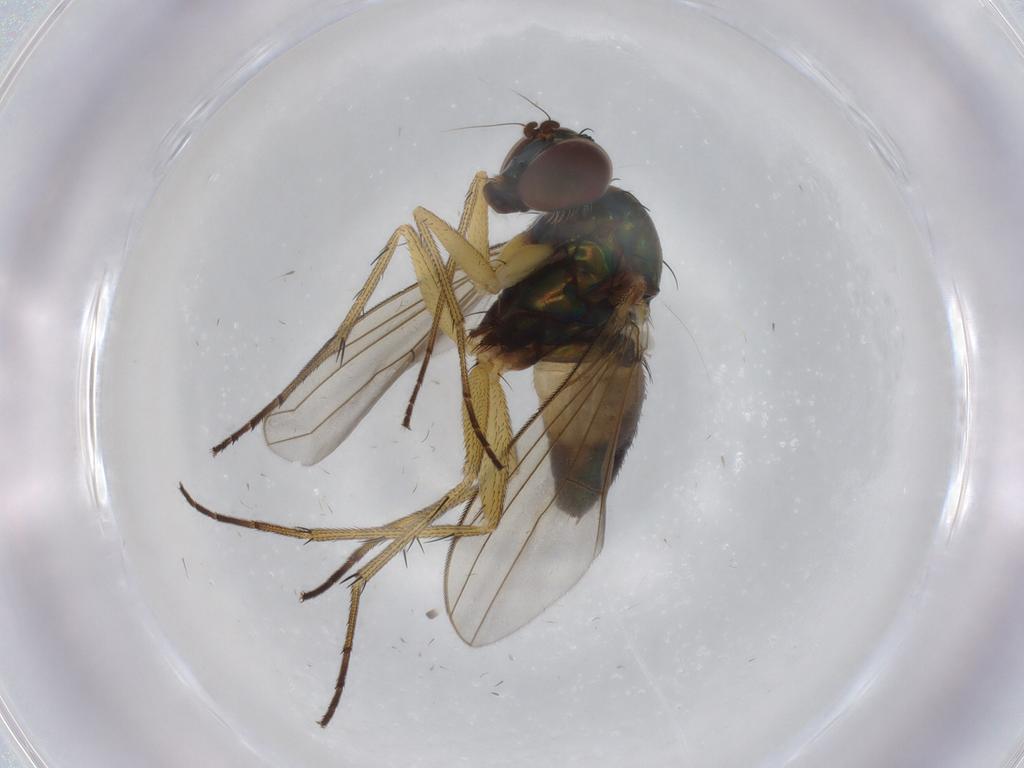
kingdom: Animalia
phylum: Arthropoda
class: Insecta
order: Diptera
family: Dolichopodidae
